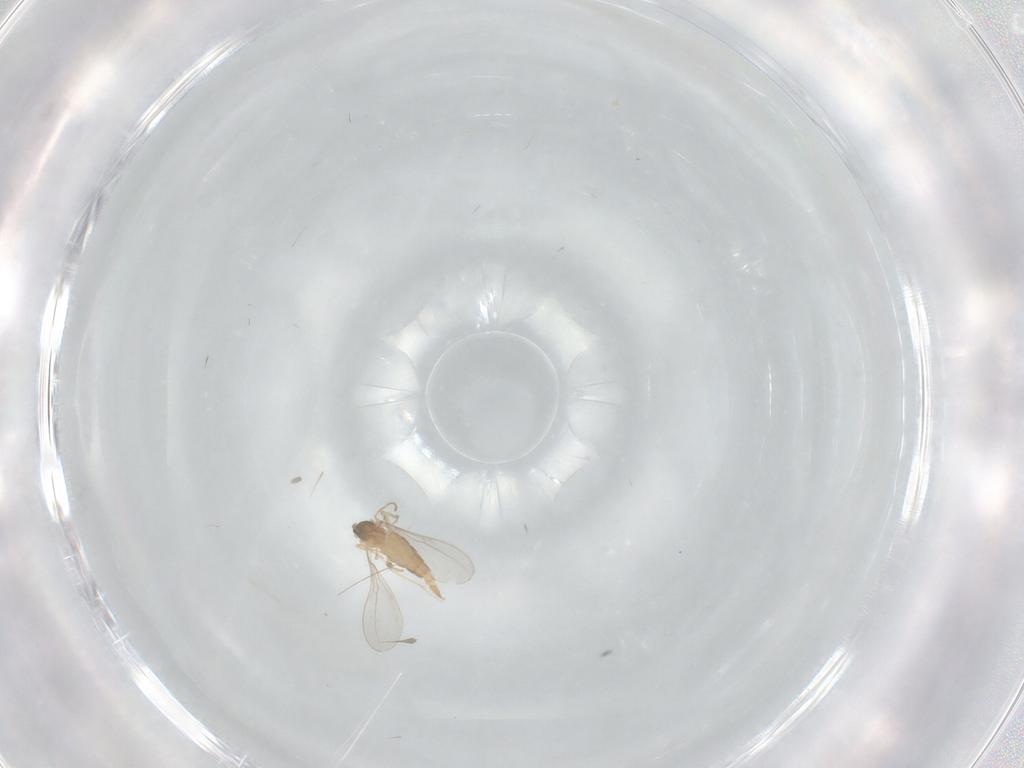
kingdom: Animalia
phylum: Arthropoda
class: Insecta
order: Diptera
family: Cecidomyiidae
